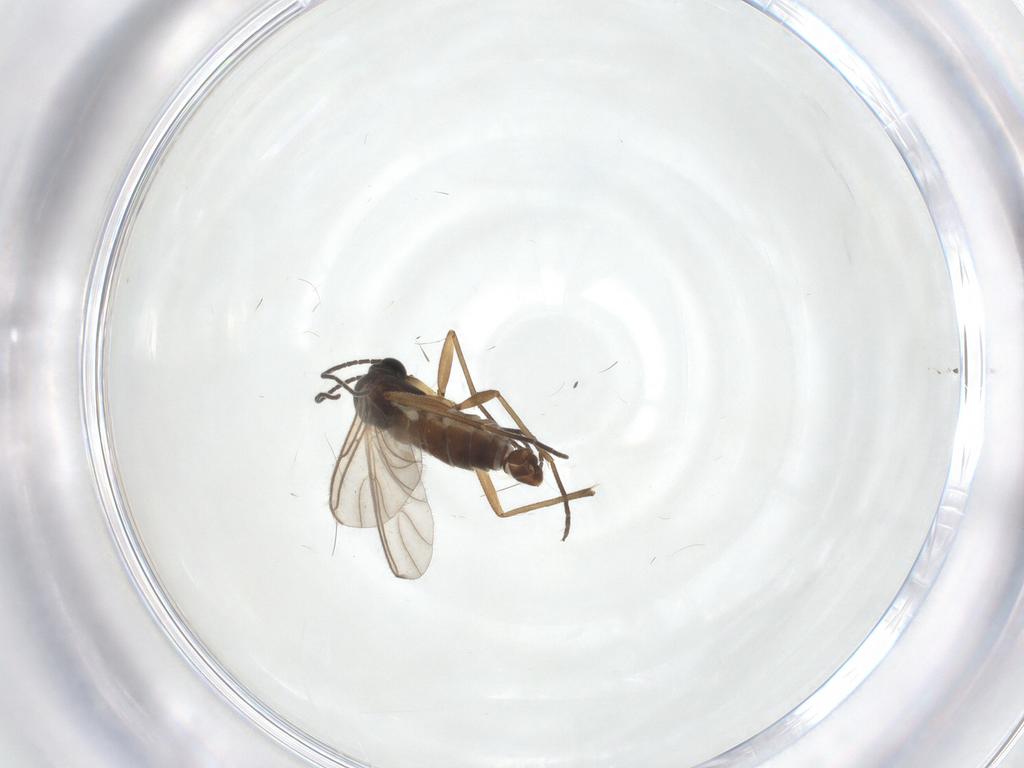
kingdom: Animalia
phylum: Arthropoda
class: Insecta
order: Diptera
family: Sciaridae
